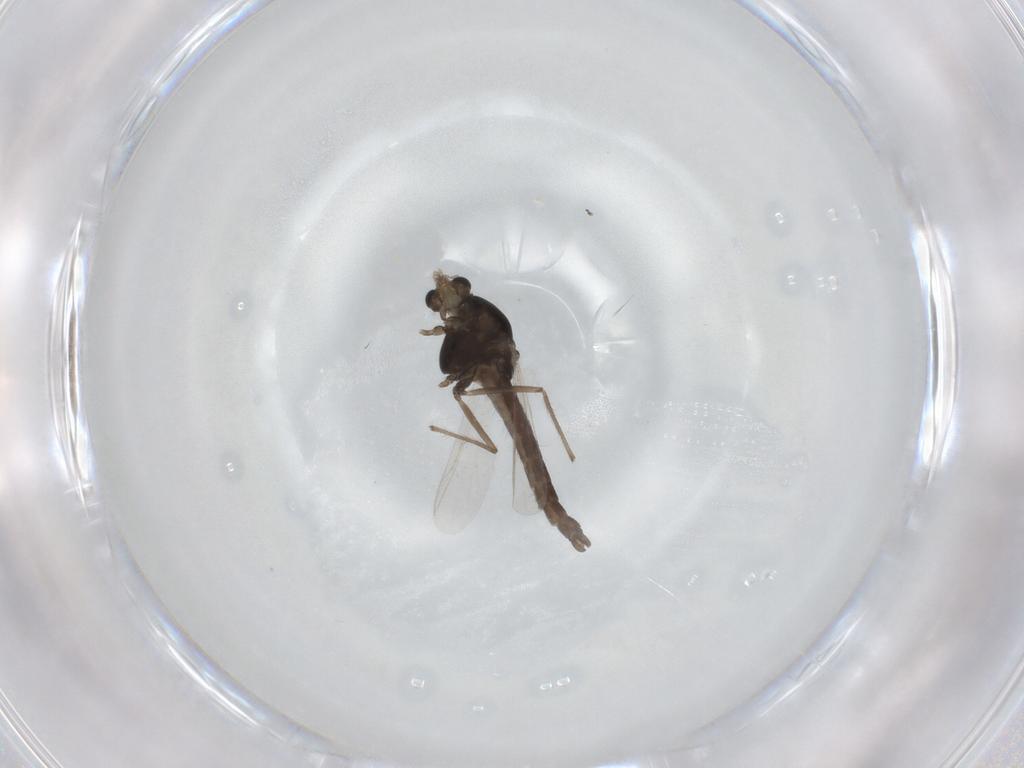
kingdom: Animalia
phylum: Arthropoda
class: Insecta
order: Diptera
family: Chironomidae
